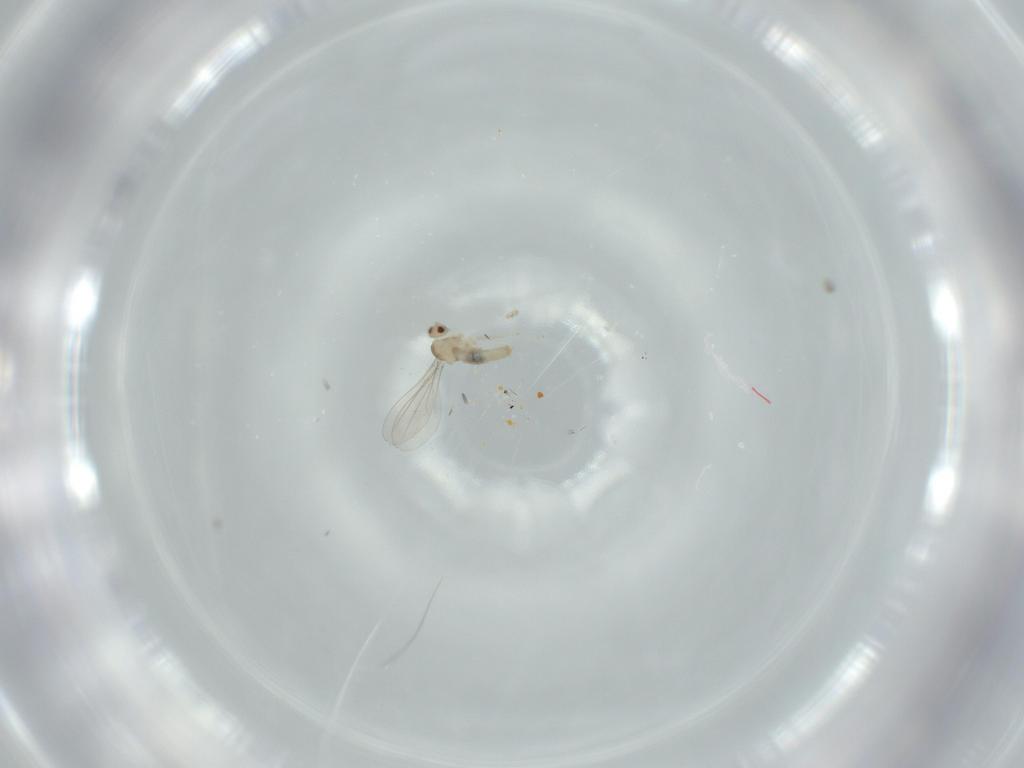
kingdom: Animalia
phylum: Arthropoda
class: Insecta
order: Diptera
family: Cecidomyiidae
